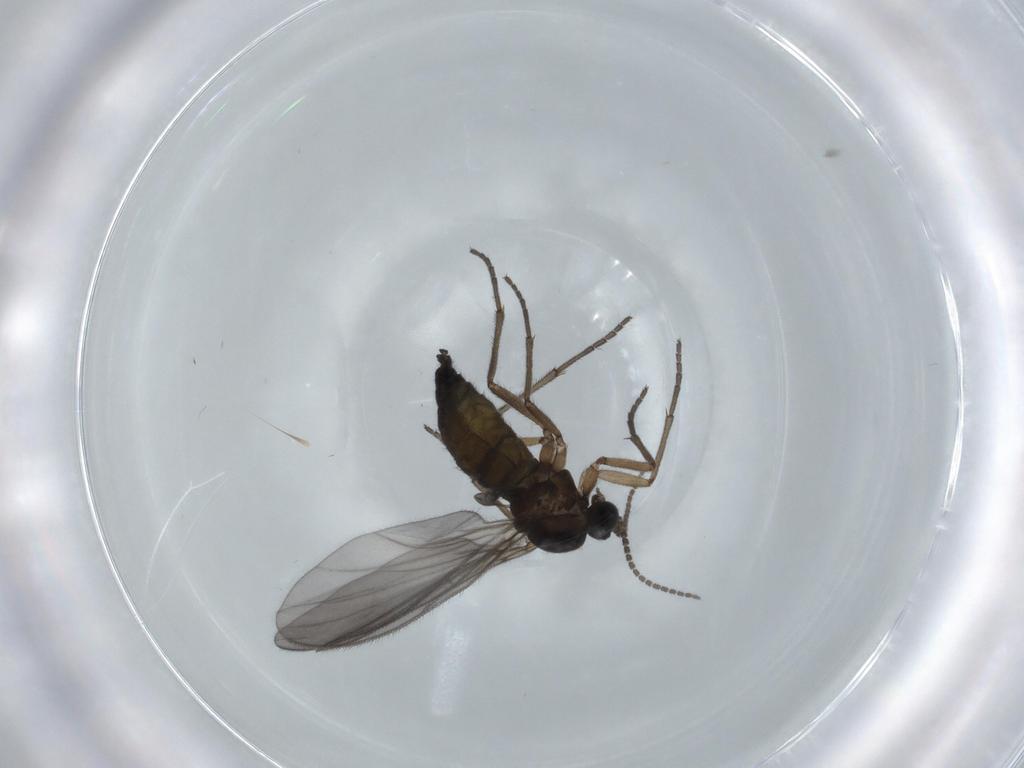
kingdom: Animalia
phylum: Arthropoda
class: Insecta
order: Diptera
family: Sciaridae
